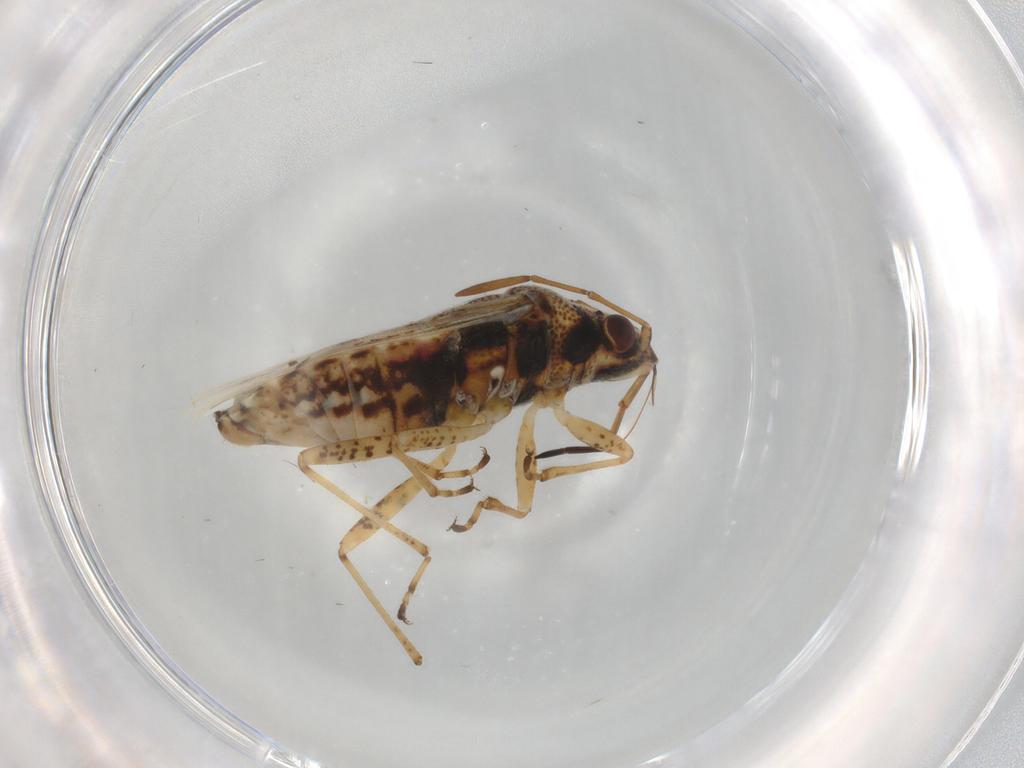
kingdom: Animalia
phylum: Arthropoda
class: Insecta
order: Hemiptera
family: Lygaeidae
